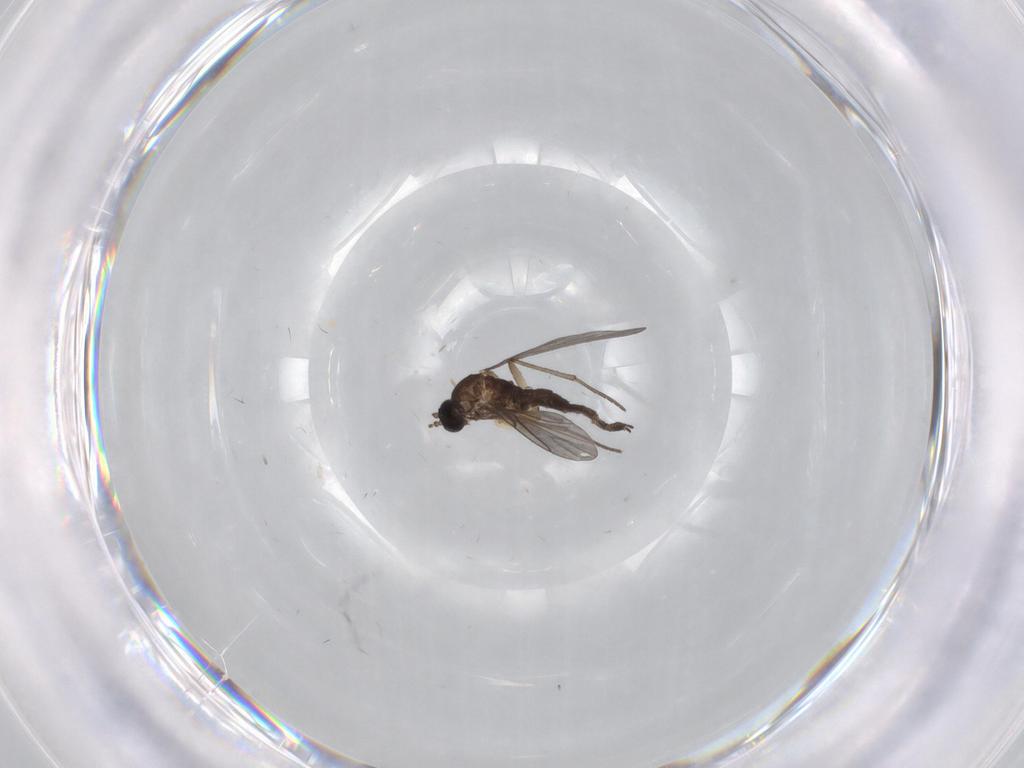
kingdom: Animalia
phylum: Arthropoda
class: Insecta
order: Diptera
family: Sciaridae
